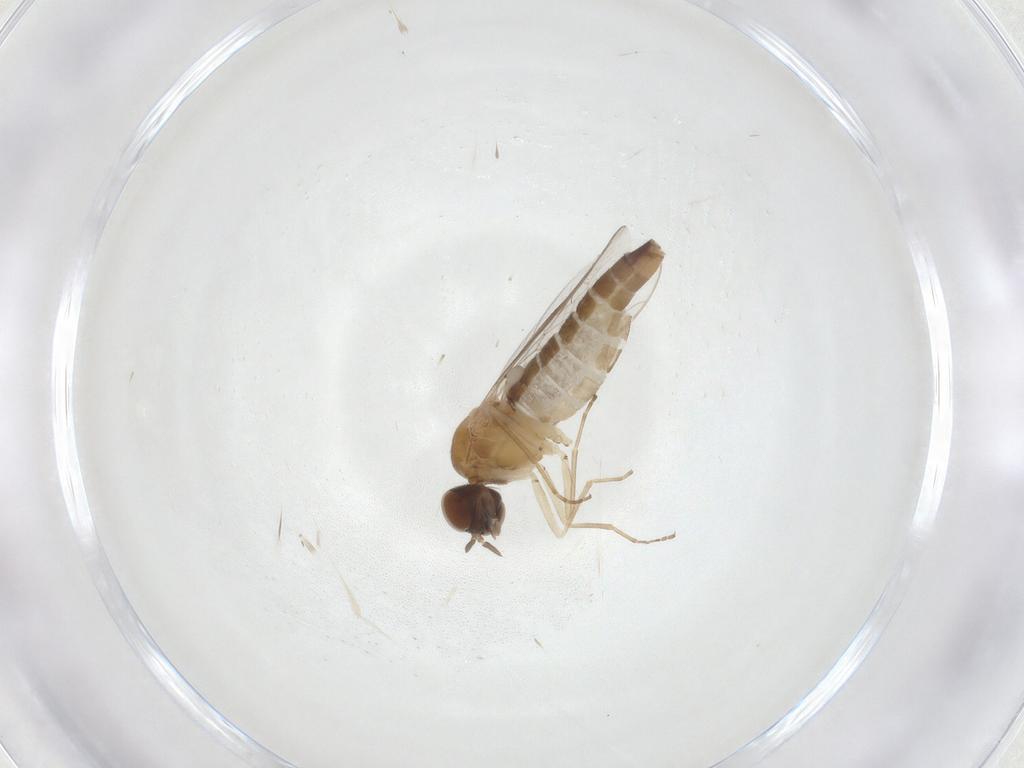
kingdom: Animalia
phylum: Arthropoda
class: Insecta
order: Diptera
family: Scenopinidae
